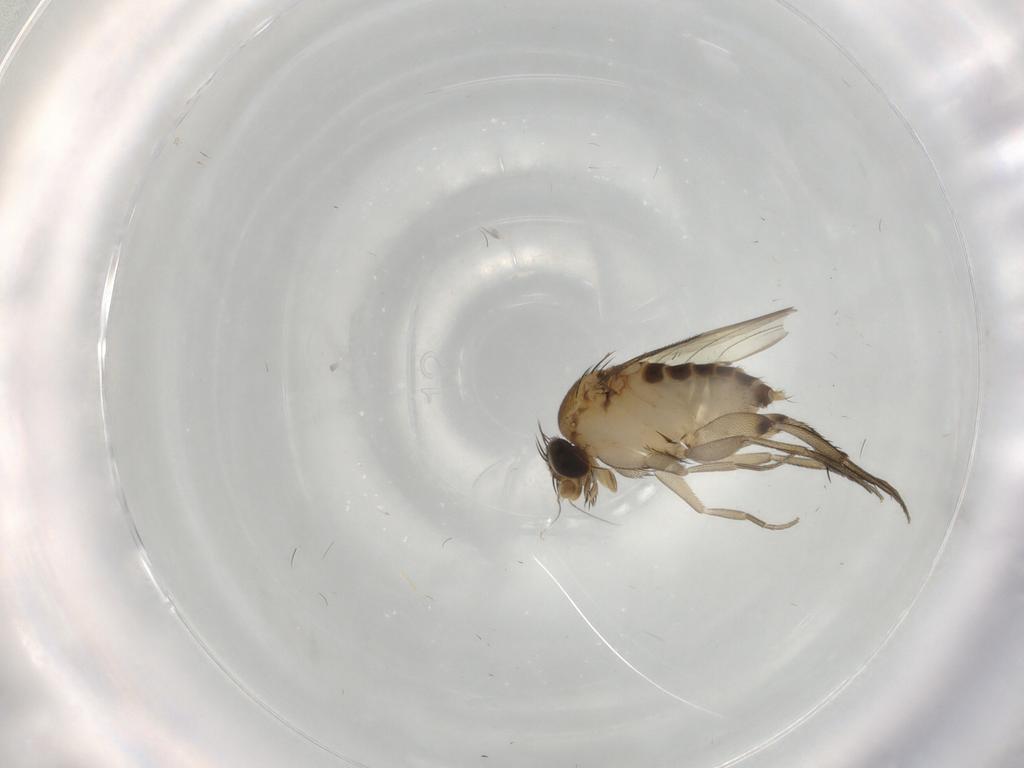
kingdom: Animalia
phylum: Arthropoda
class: Insecta
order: Diptera
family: Phoridae
